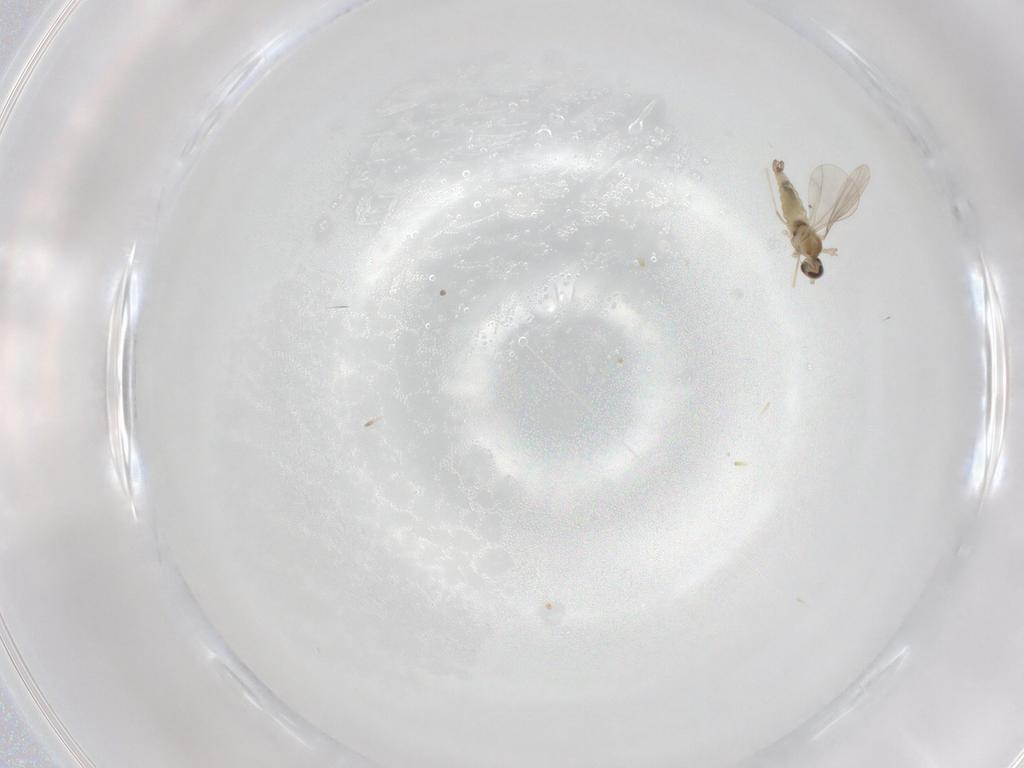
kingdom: Animalia
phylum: Arthropoda
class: Insecta
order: Diptera
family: Cecidomyiidae
